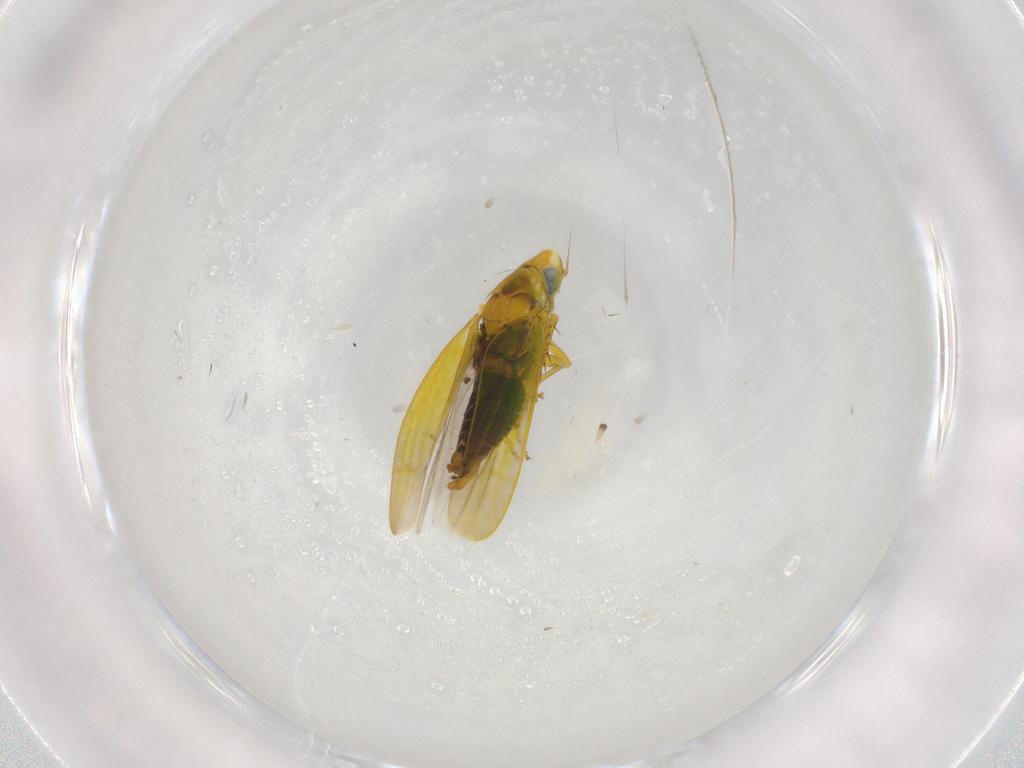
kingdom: Animalia
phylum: Arthropoda
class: Insecta
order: Hemiptera
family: Cicadellidae
